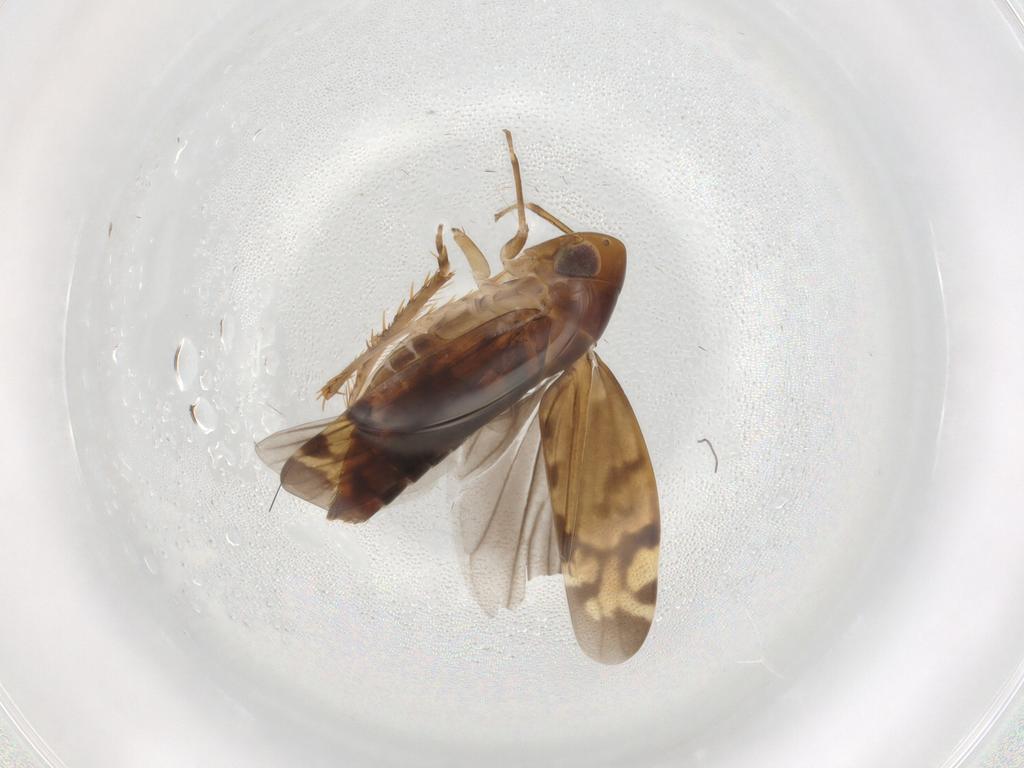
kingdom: Animalia
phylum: Arthropoda
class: Insecta
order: Hemiptera
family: Cicadellidae
